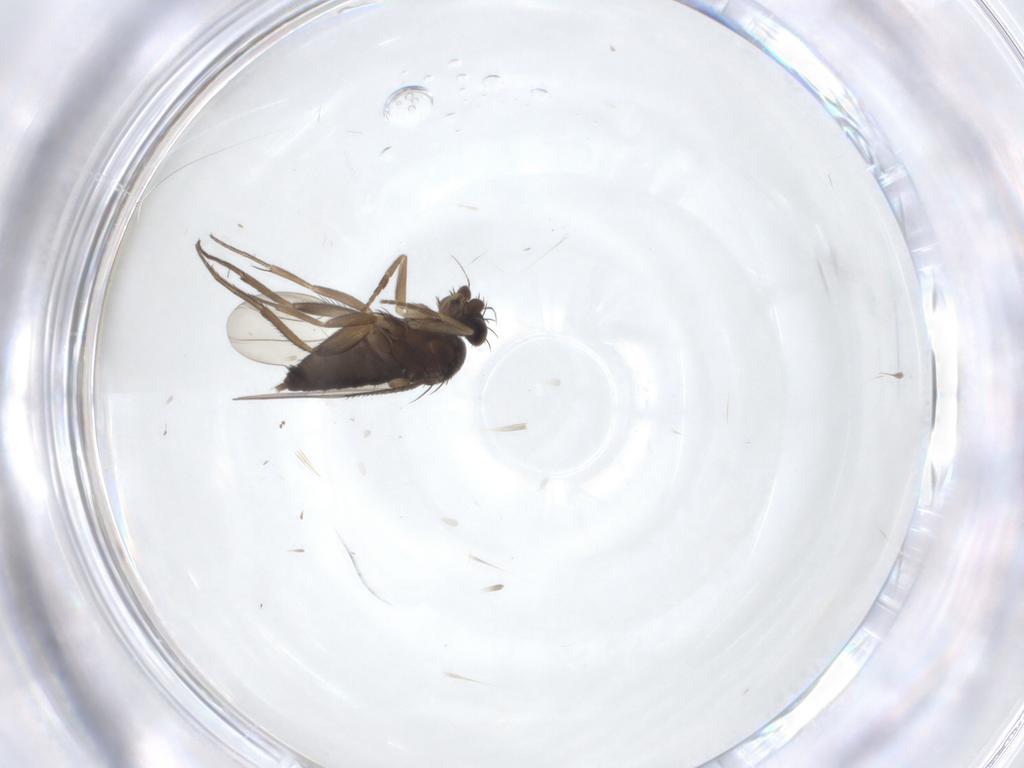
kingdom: Animalia
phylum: Arthropoda
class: Insecta
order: Diptera
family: Phoridae
